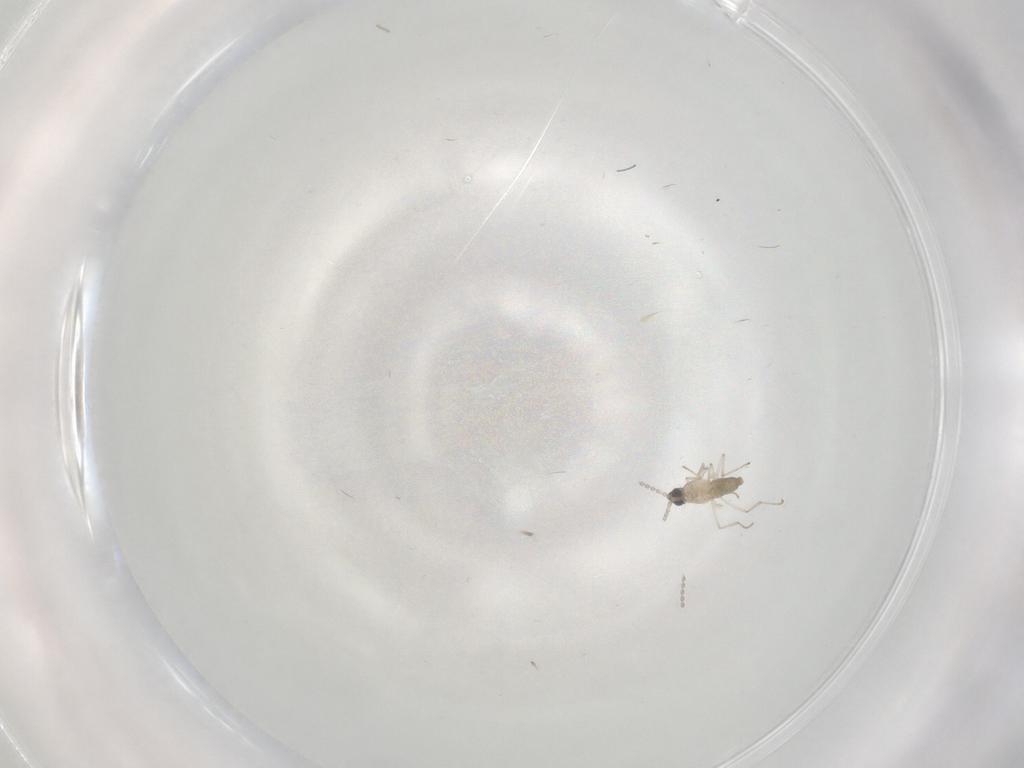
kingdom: Animalia
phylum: Arthropoda
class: Insecta
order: Diptera
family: Cecidomyiidae
